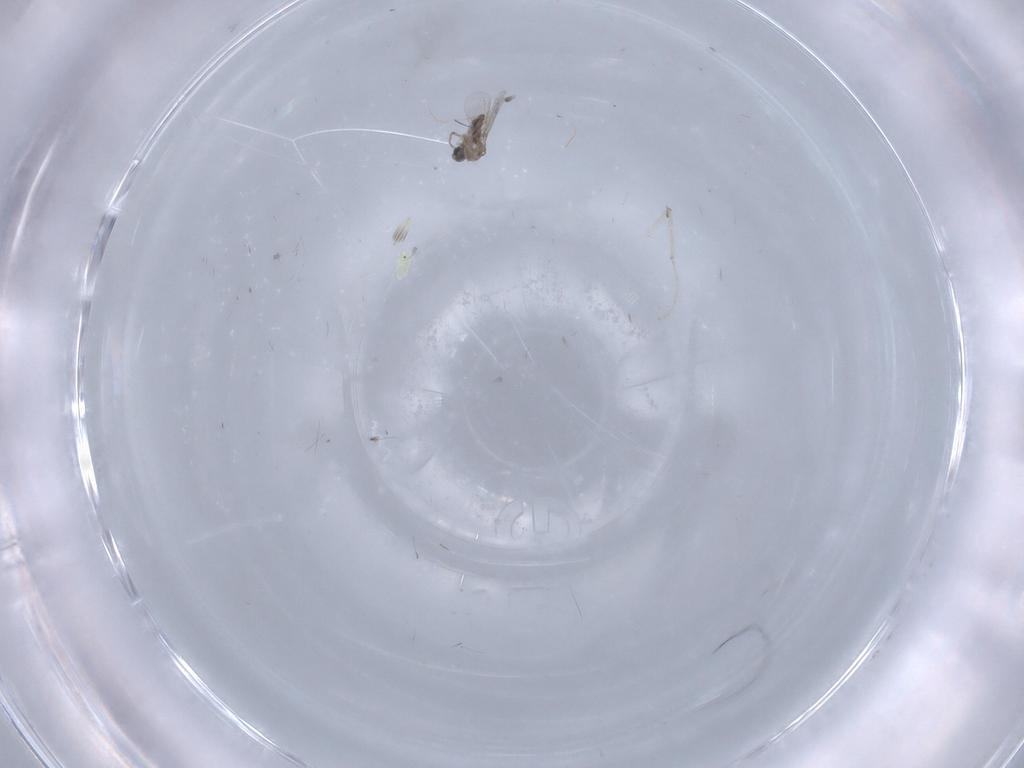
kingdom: Animalia
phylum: Arthropoda
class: Insecta
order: Diptera
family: Cecidomyiidae
